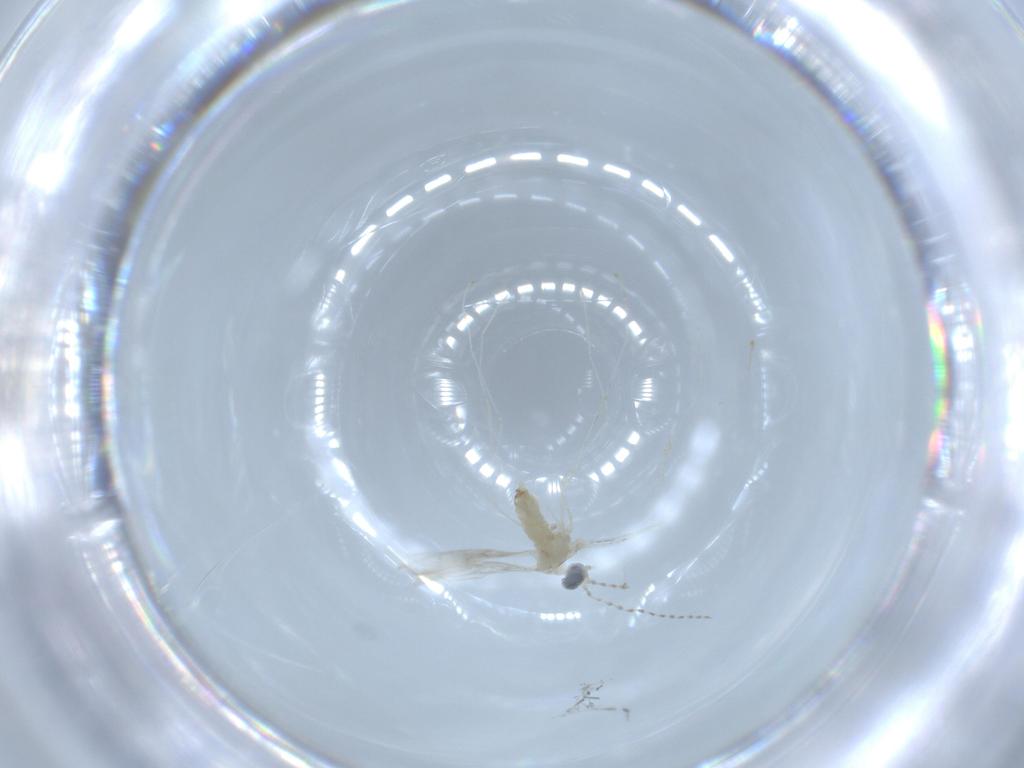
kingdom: Animalia
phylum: Arthropoda
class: Insecta
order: Diptera
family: Cecidomyiidae
